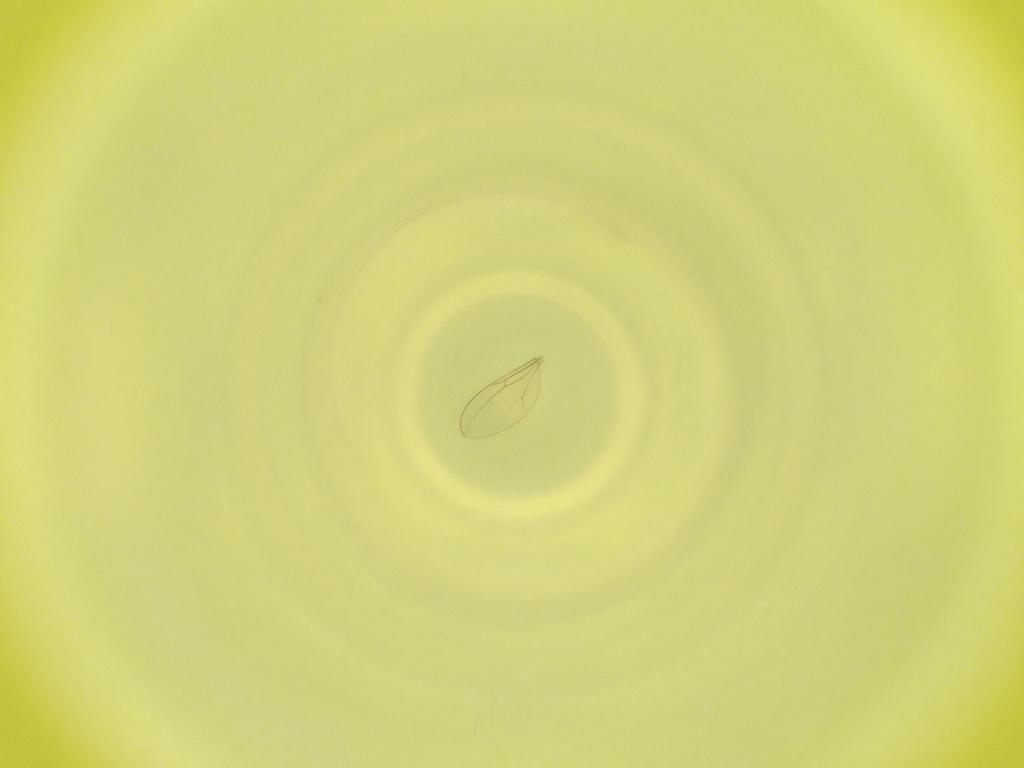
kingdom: Animalia
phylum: Arthropoda
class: Insecta
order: Diptera
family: Cecidomyiidae
